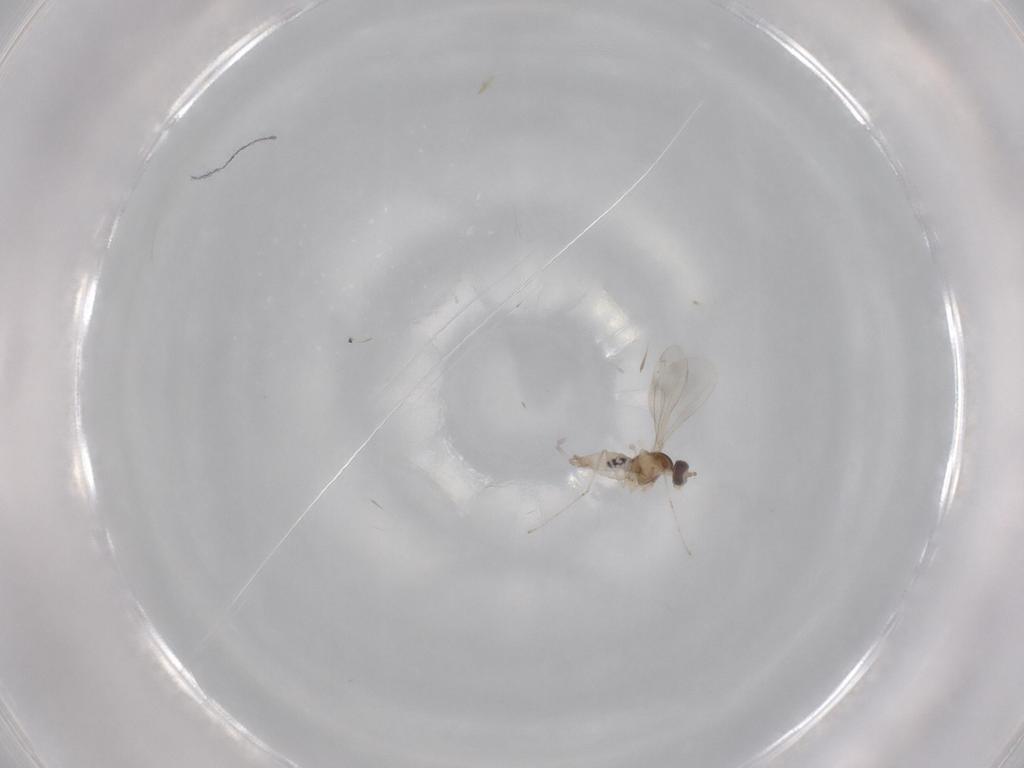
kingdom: Animalia
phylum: Arthropoda
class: Insecta
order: Diptera
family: Cecidomyiidae
